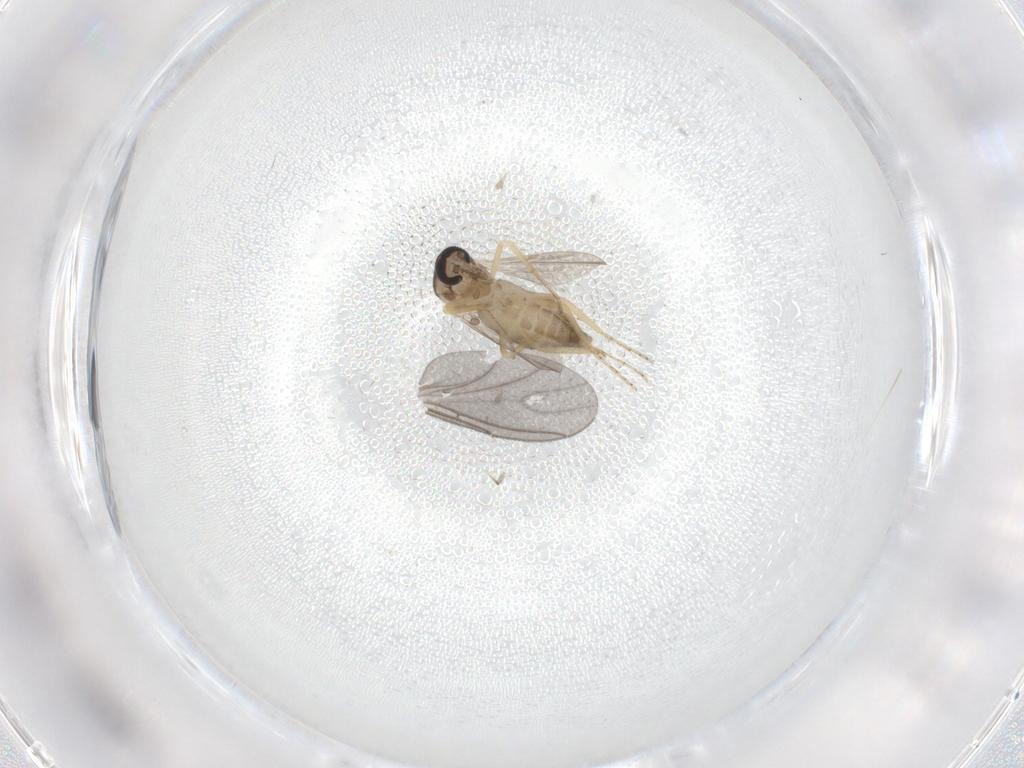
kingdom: Animalia
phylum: Arthropoda
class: Insecta
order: Diptera
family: Ceratopogonidae
